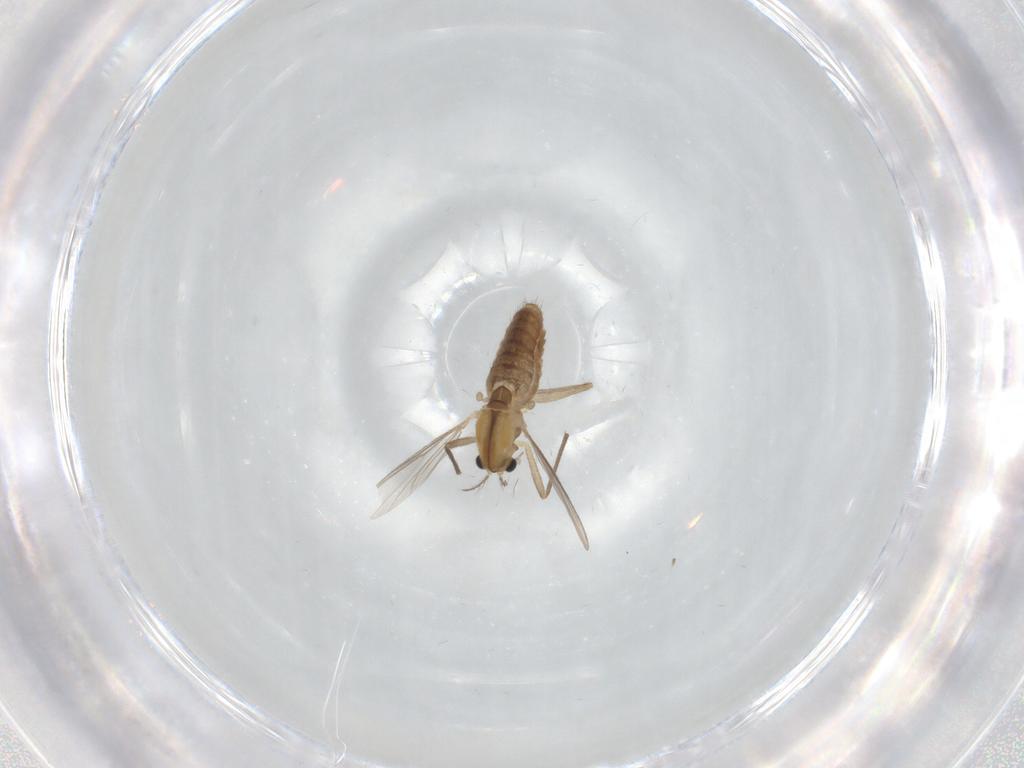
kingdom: Animalia
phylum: Arthropoda
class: Insecta
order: Diptera
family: Chironomidae
